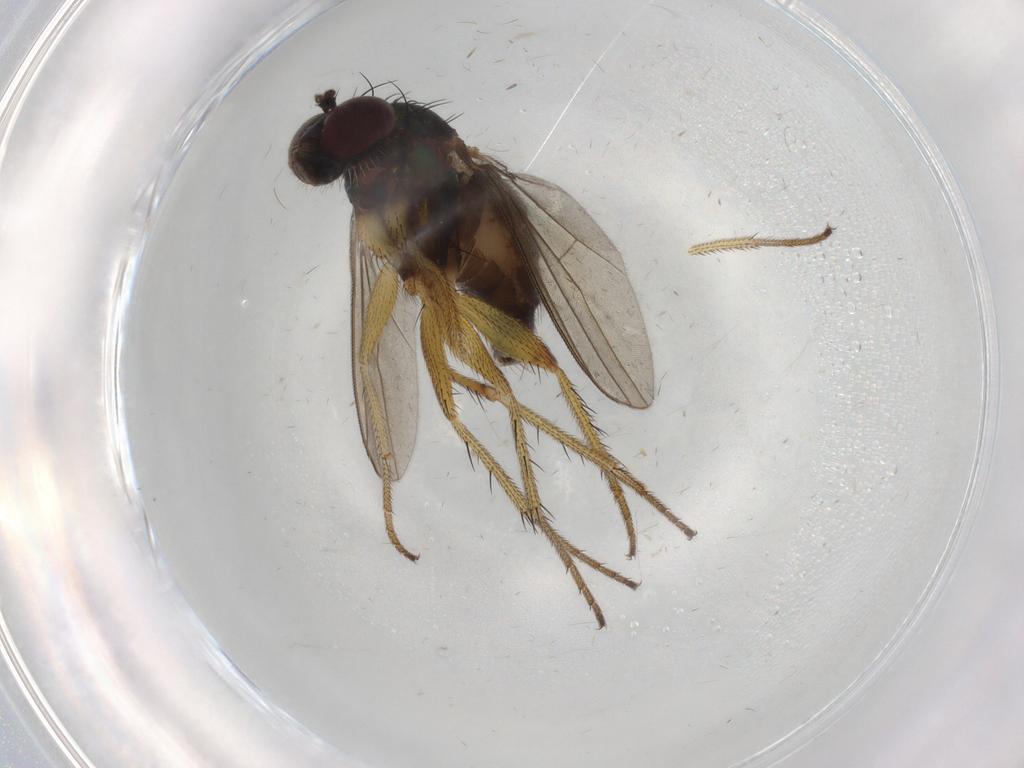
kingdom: Animalia
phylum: Arthropoda
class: Insecta
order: Diptera
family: Dolichopodidae
